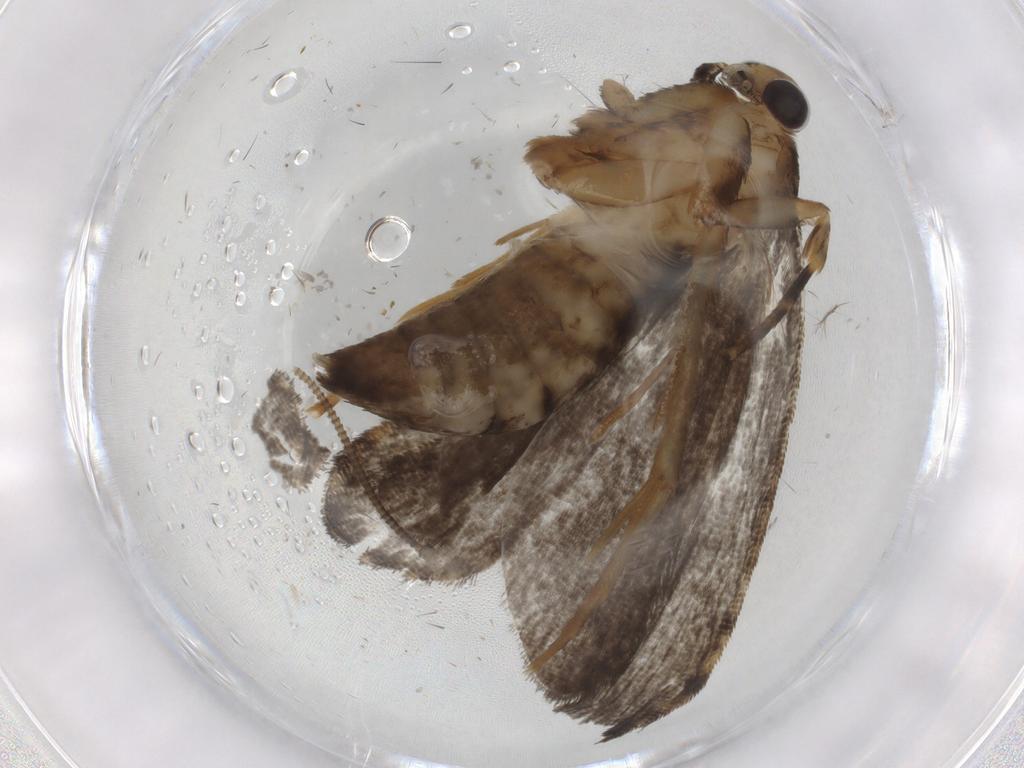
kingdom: Animalia
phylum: Arthropoda
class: Insecta
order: Lepidoptera
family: Tineidae
